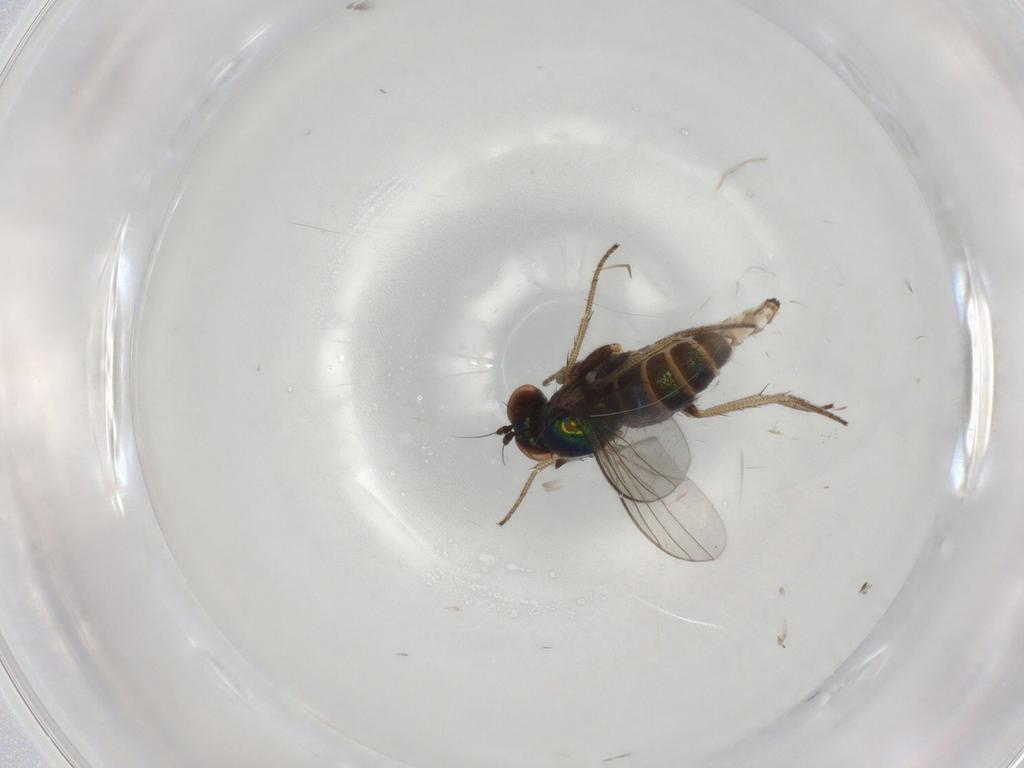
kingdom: Animalia
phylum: Arthropoda
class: Insecta
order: Diptera
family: Dolichopodidae
